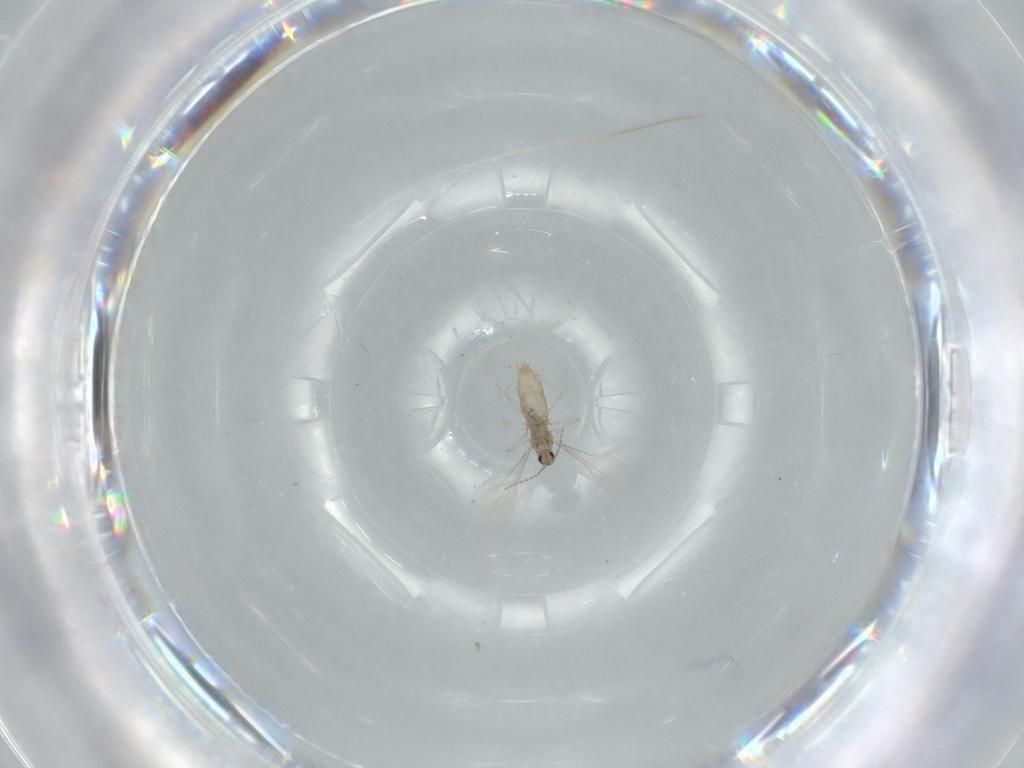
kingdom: Animalia
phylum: Arthropoda
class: Insecta
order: Diptera
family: Cecidomyiidae
